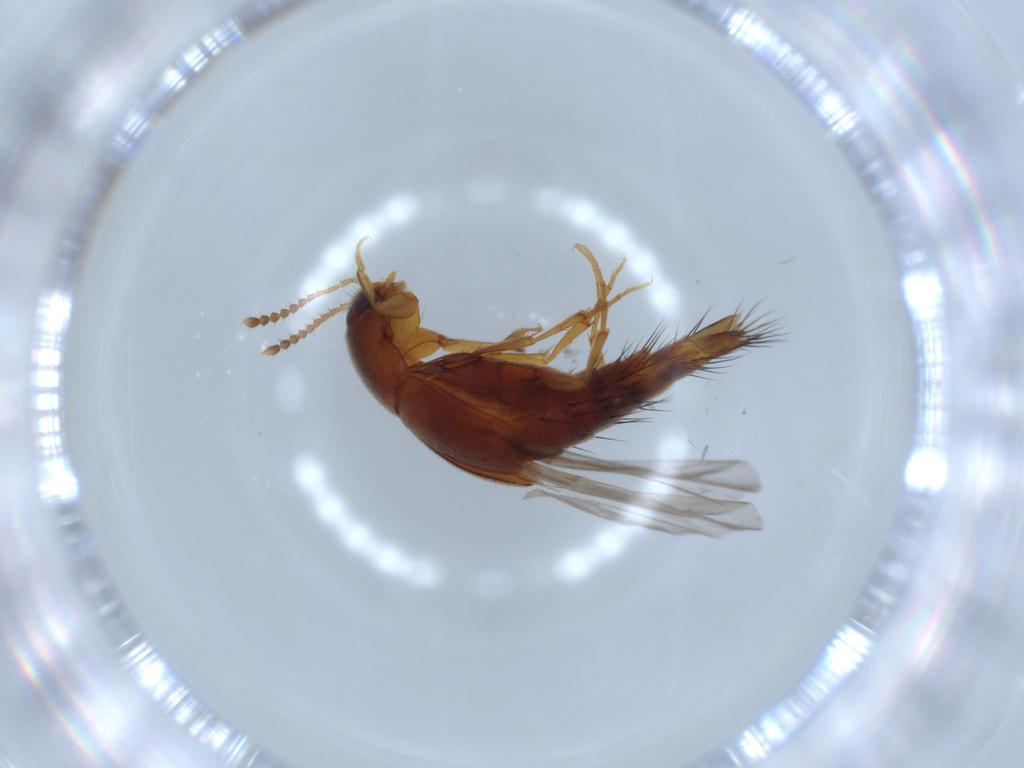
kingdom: Animalia
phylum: Arthropoda
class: Insecta
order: Coleoptera
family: Staphylinidae
